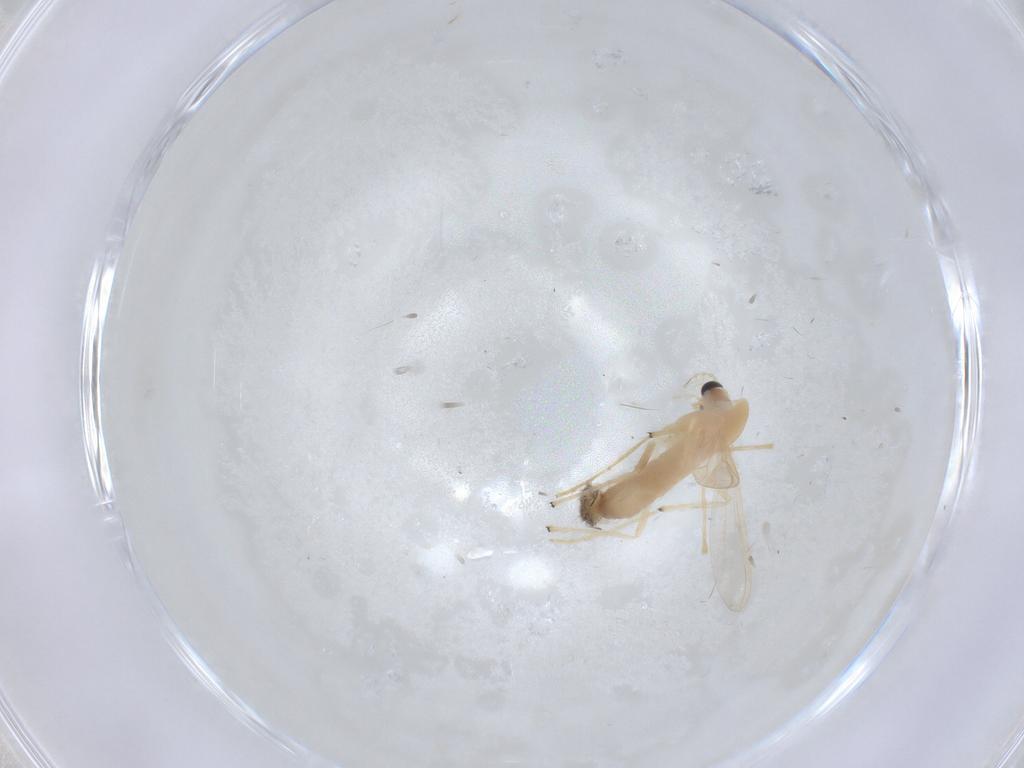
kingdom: Animalia
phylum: Arthropoda
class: Insecta
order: Diptera
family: Chironomidae
